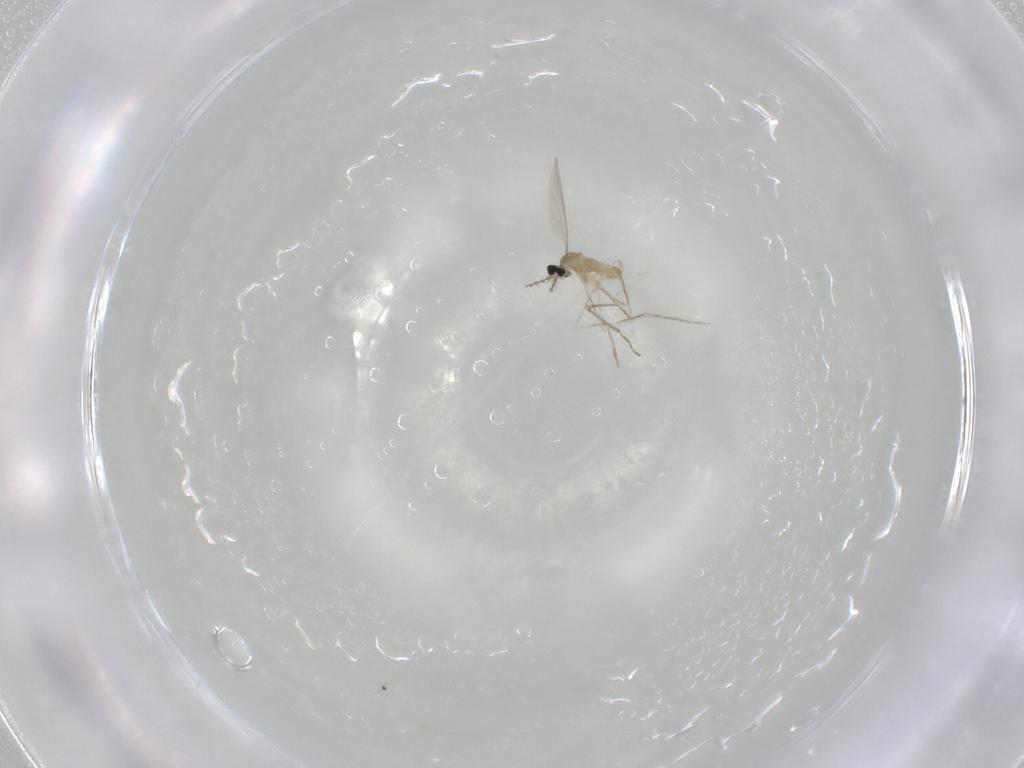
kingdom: Animalia
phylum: Arthropoda
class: Insecta
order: Diptera
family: Cecidomyiidae
